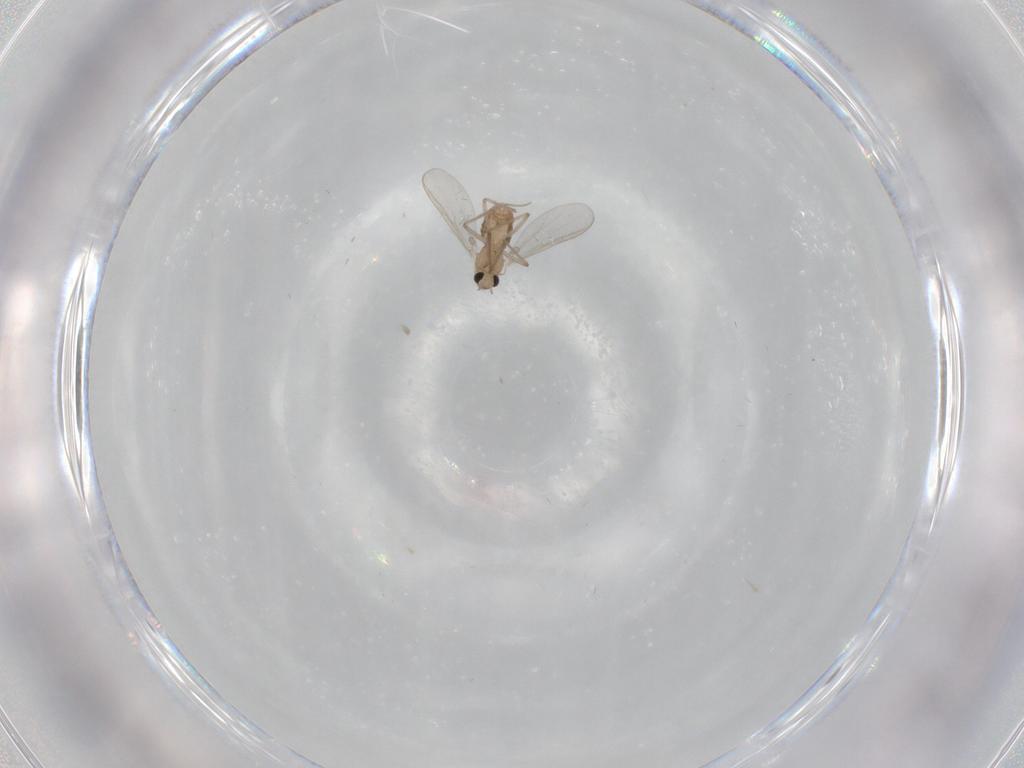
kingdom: Animalia
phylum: Arthropoda
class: Insecta
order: Diptera
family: Chironomidae
